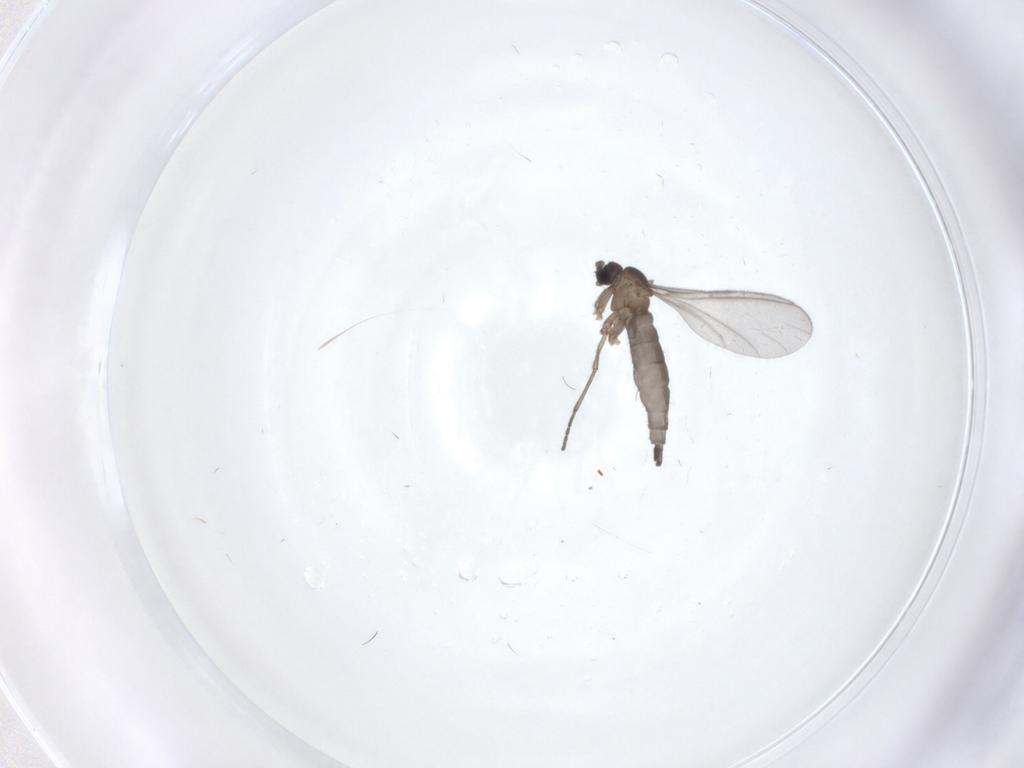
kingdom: Animalia
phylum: Arthropoda
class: Insecta
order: Diptera
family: Sciaridae
